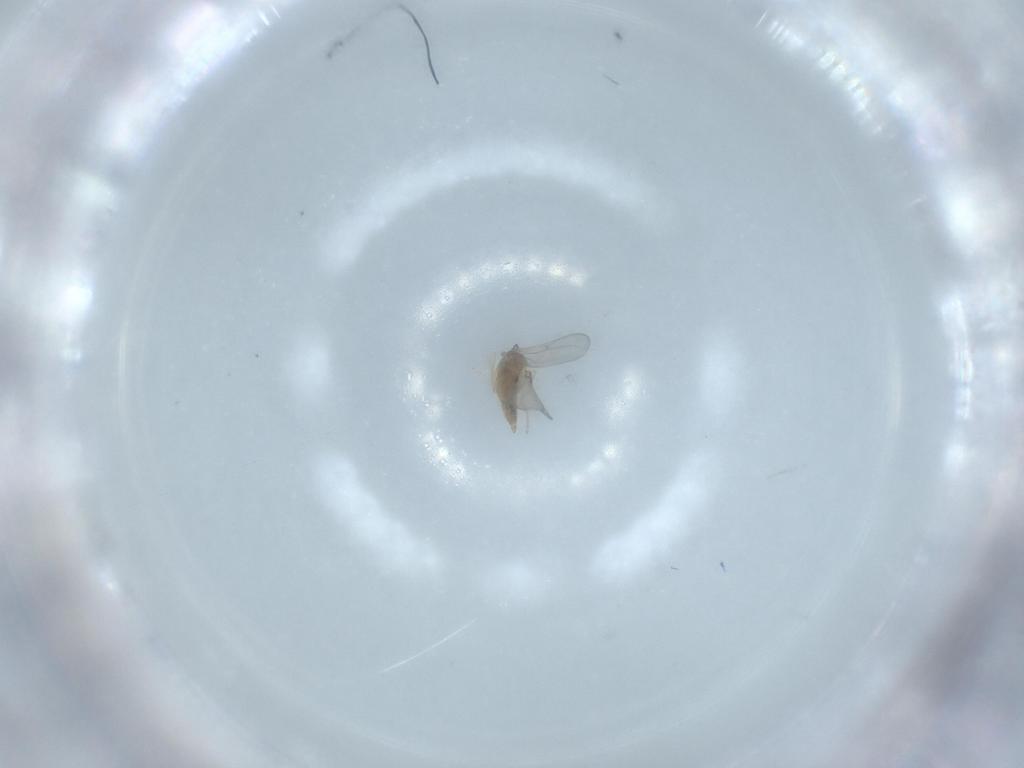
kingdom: Animalia
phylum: Arthropoda
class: Insecta
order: Diptera
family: Cecidomyiidae
